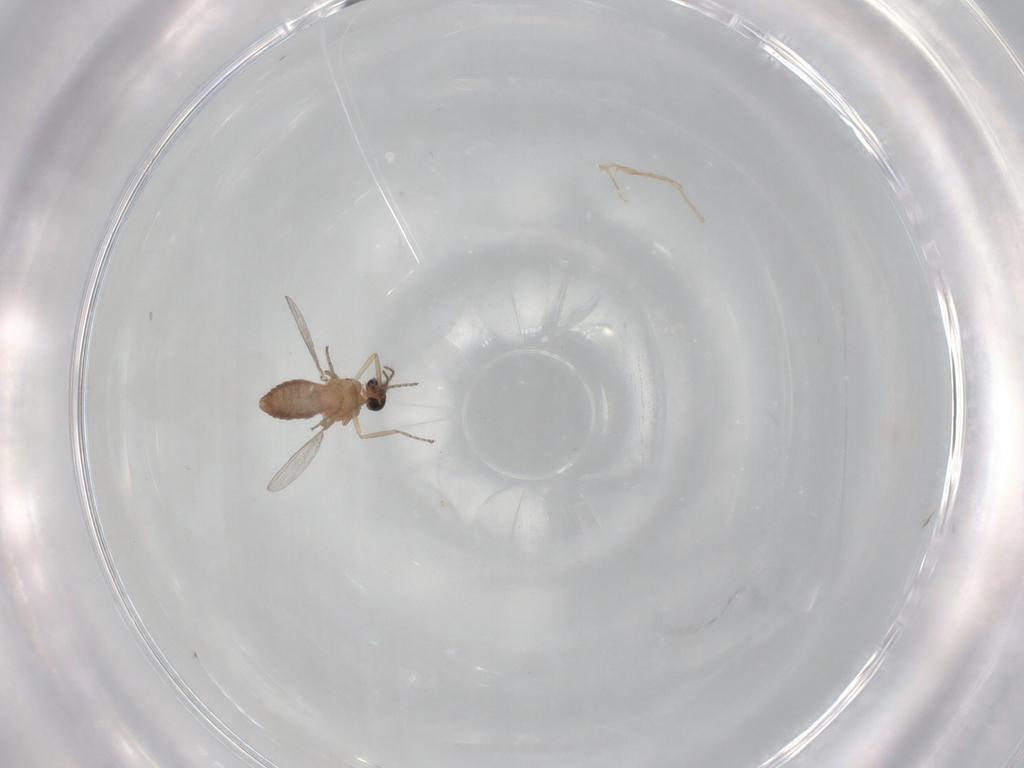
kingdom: Animalia
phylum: Arthropoda
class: Insecta
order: Diptera
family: Ceratopogonidae
